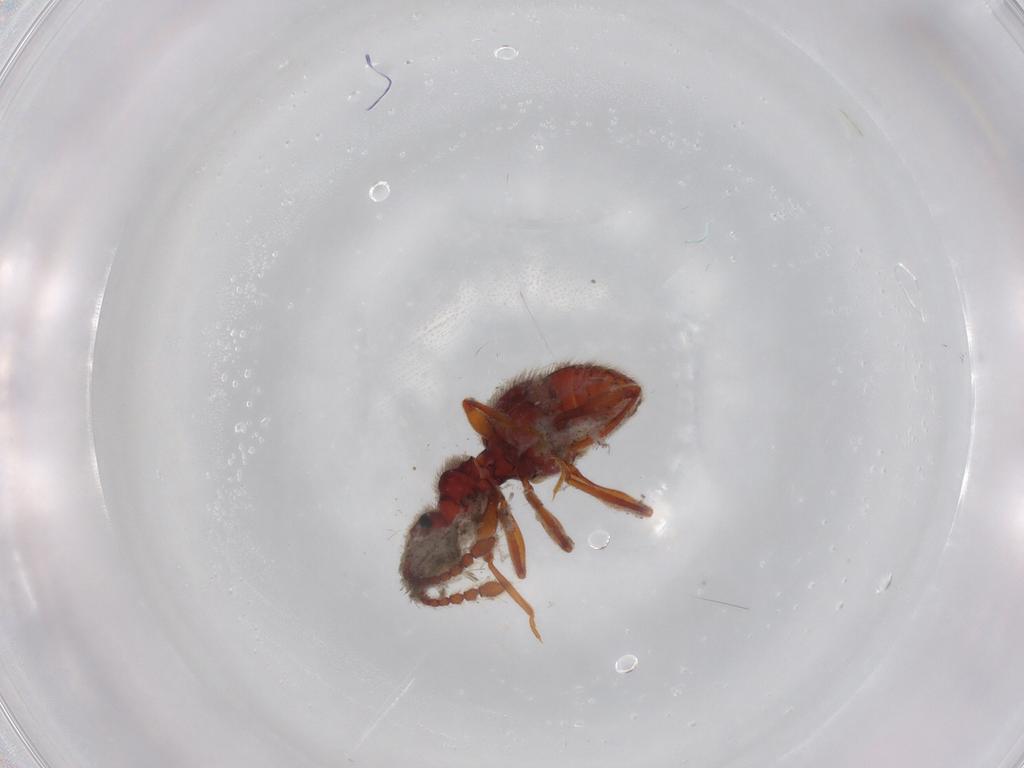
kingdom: Animalia
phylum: Arthropoda
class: Insecta
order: Coleoptera
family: Staphylinidae
